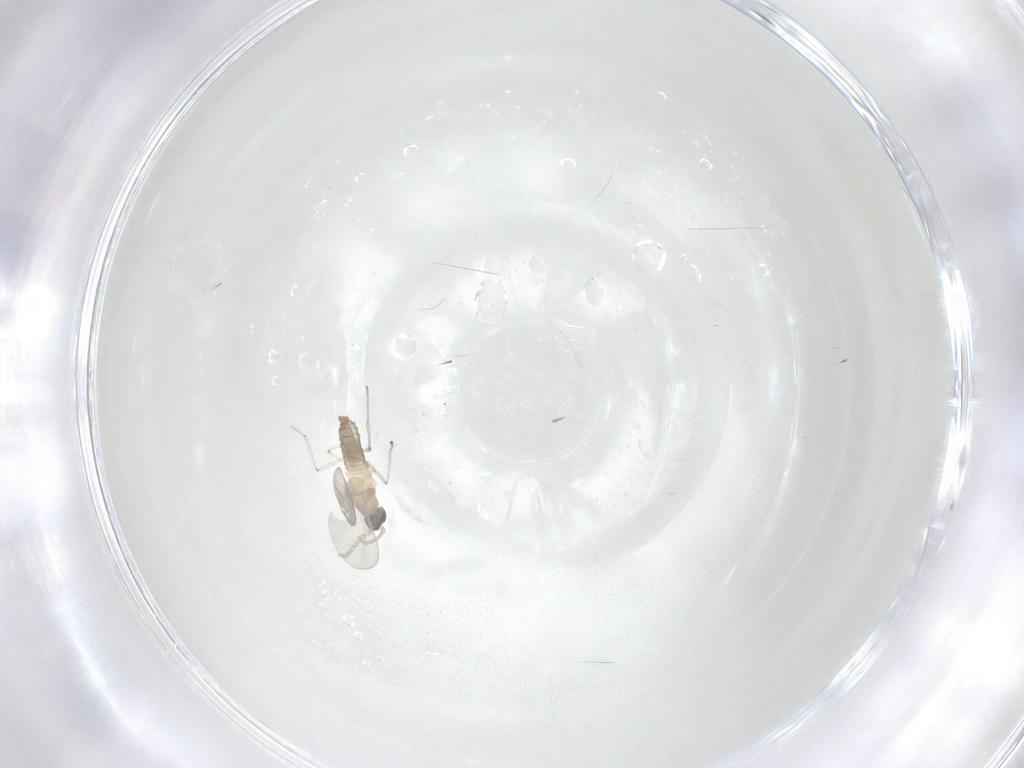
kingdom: Animalia
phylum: Arthropoda
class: Insecta
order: Diptera
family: Cecidomyiidae
